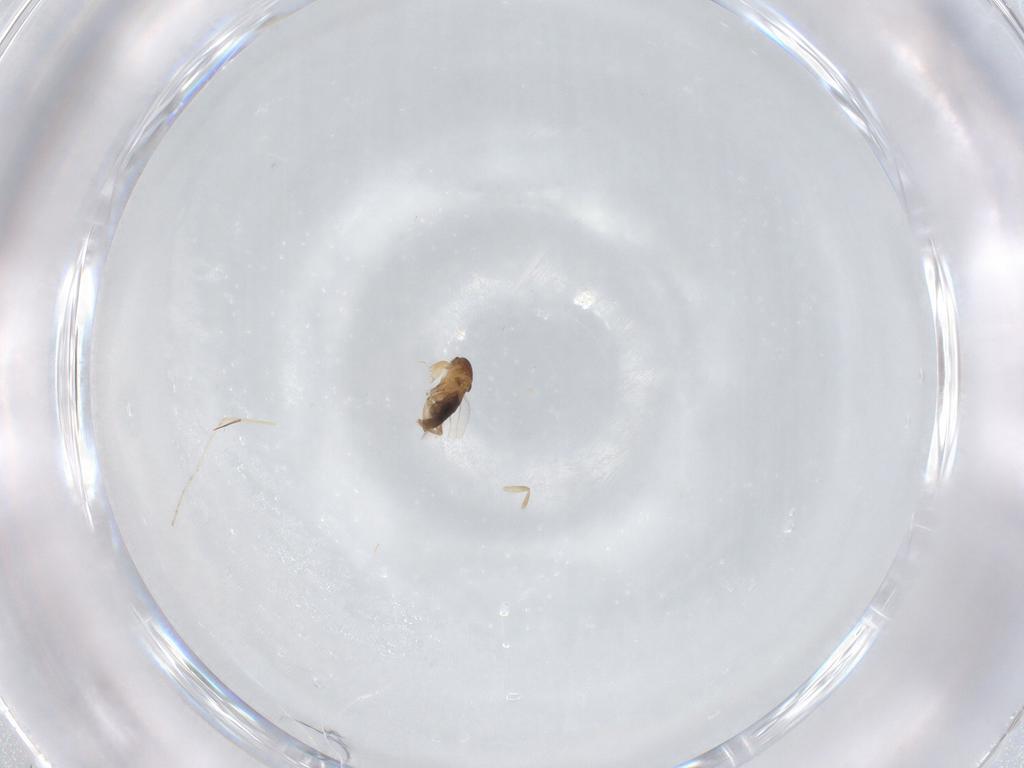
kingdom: Animalia
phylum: Arthropoda
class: Insecta
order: Diptera
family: Phoridae
